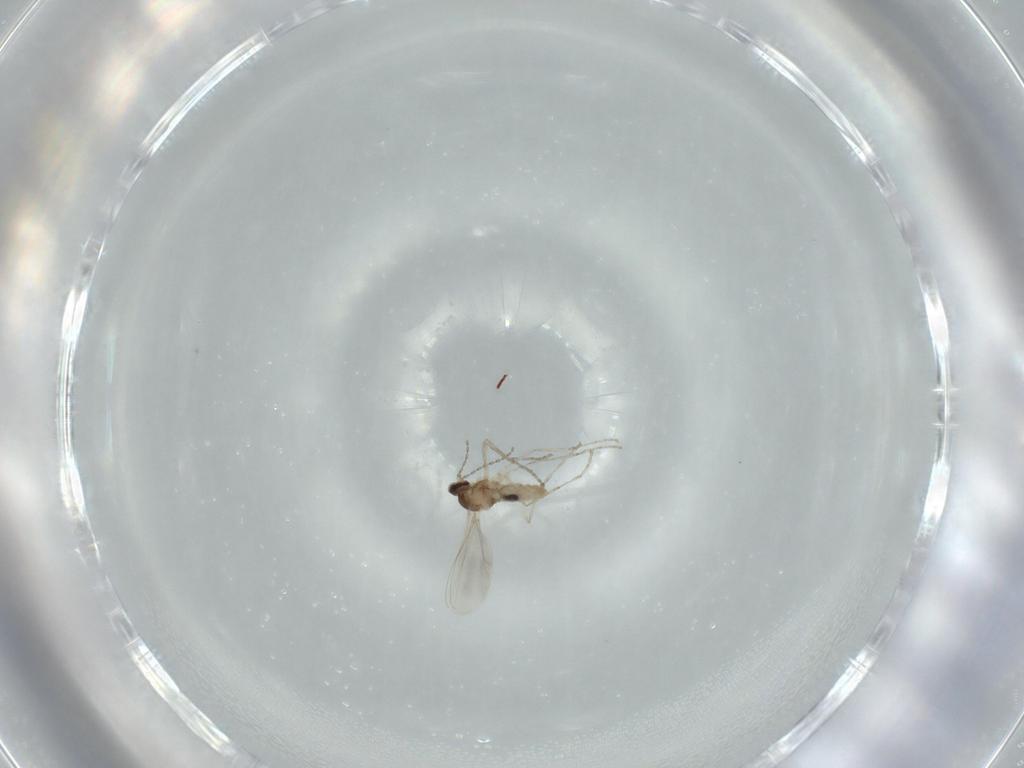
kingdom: Animalia
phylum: Arthropoda
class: Insecta
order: Diptera
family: Cecidomyiidae
